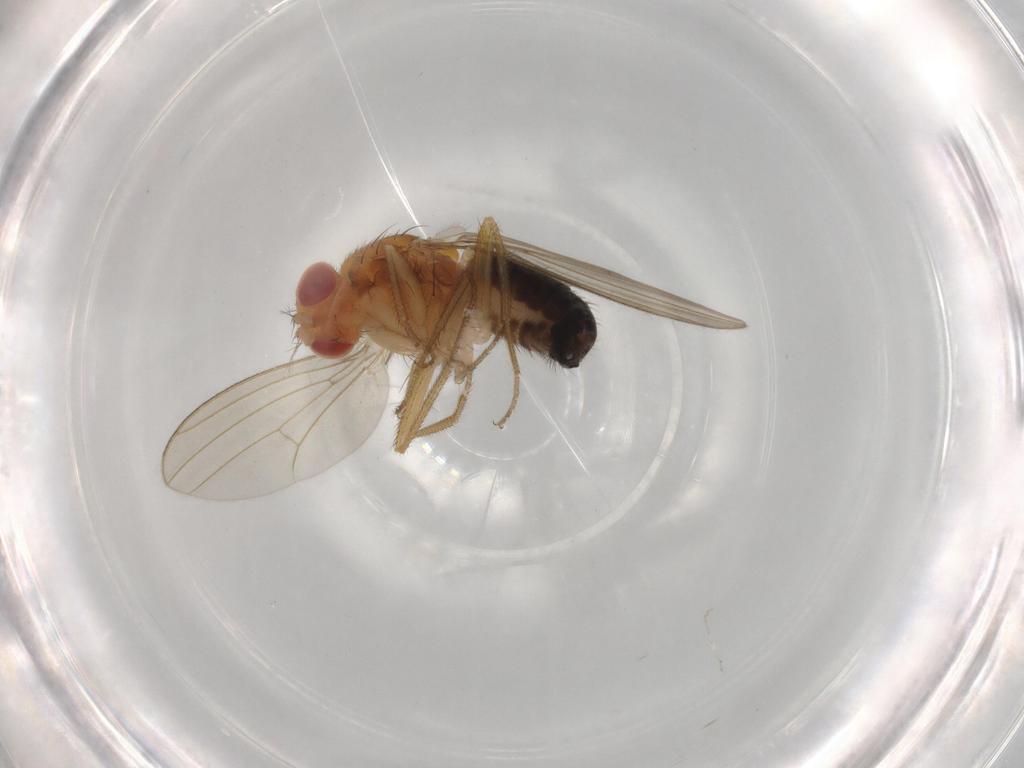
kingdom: Animalia
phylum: Arthropoda
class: Insecta
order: Diptera
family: Drosophilidae
